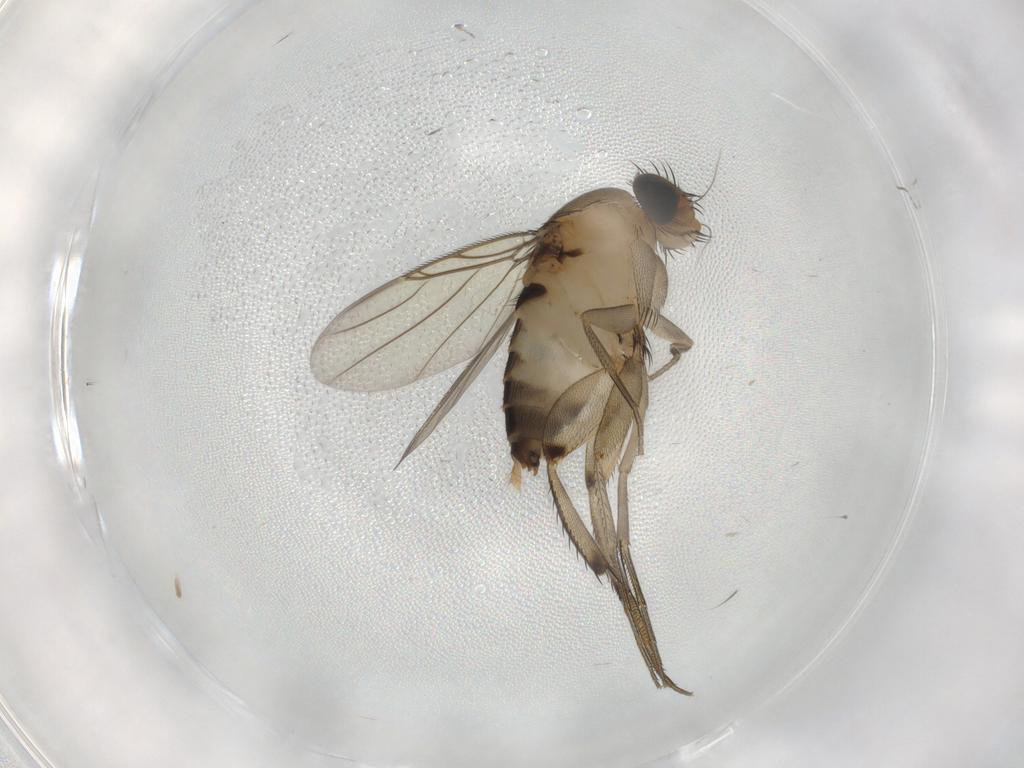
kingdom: Animalia
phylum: Arthropoda
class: Insecta
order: Diptera
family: Phoridae
